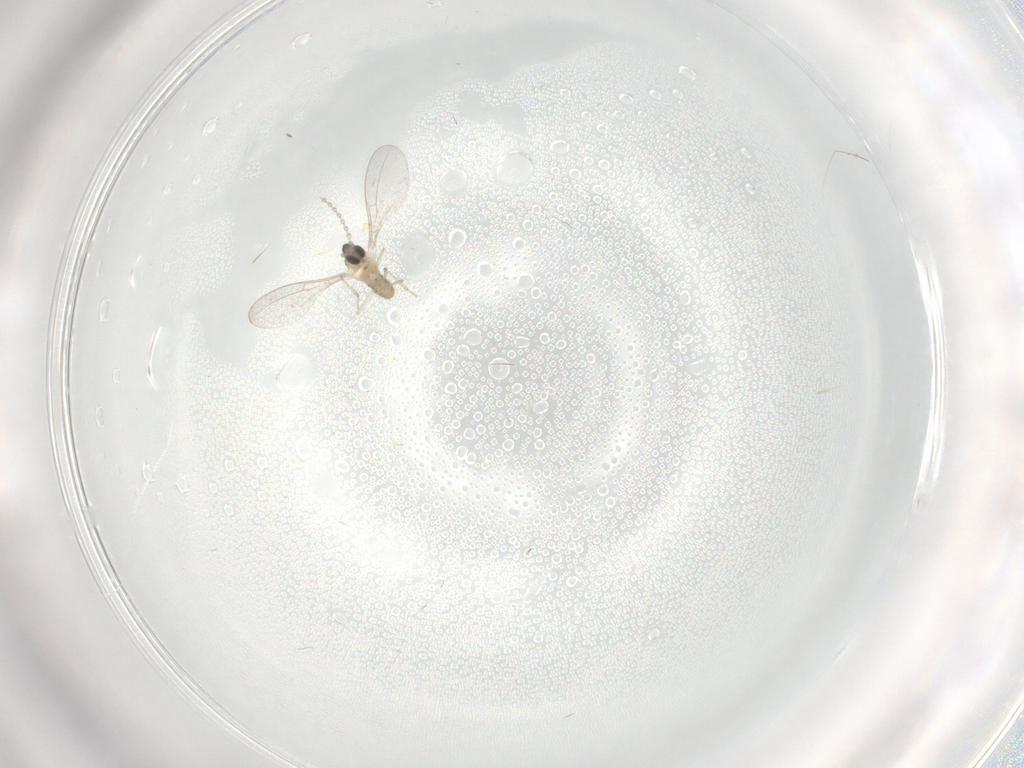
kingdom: Animalia
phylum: Arthropoda
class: Insecta
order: Diptera
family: Cecidomyiidae
